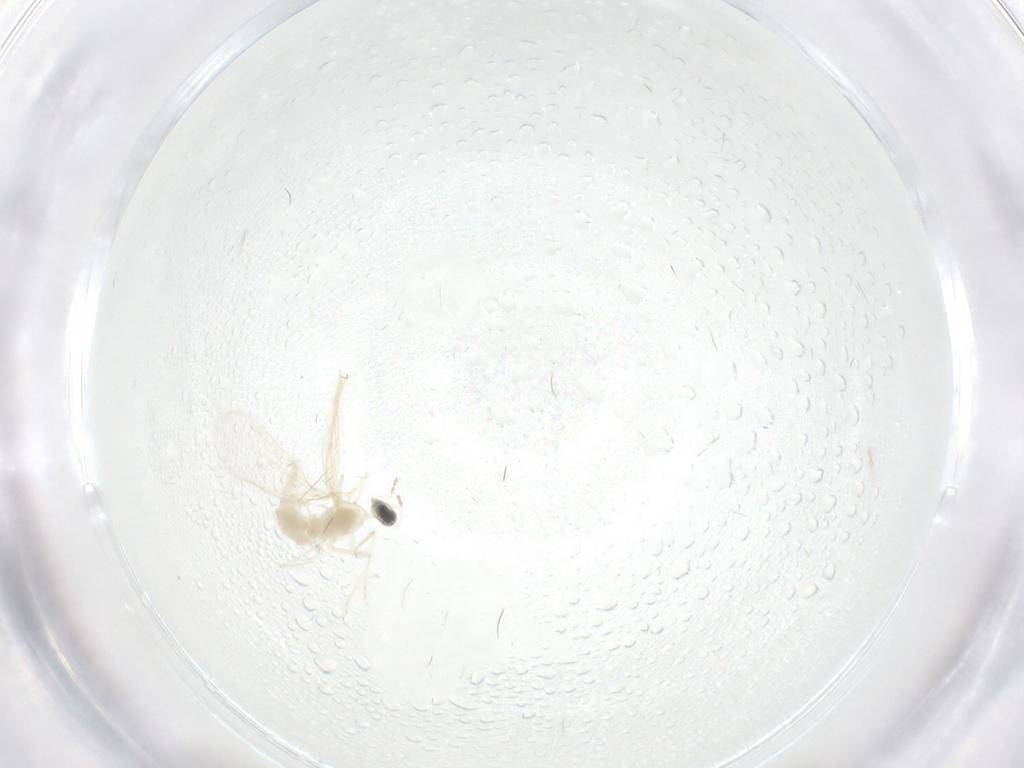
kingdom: Animalia
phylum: Arthropoda
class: Insecta
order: Diptera
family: Cecidomyiidae
